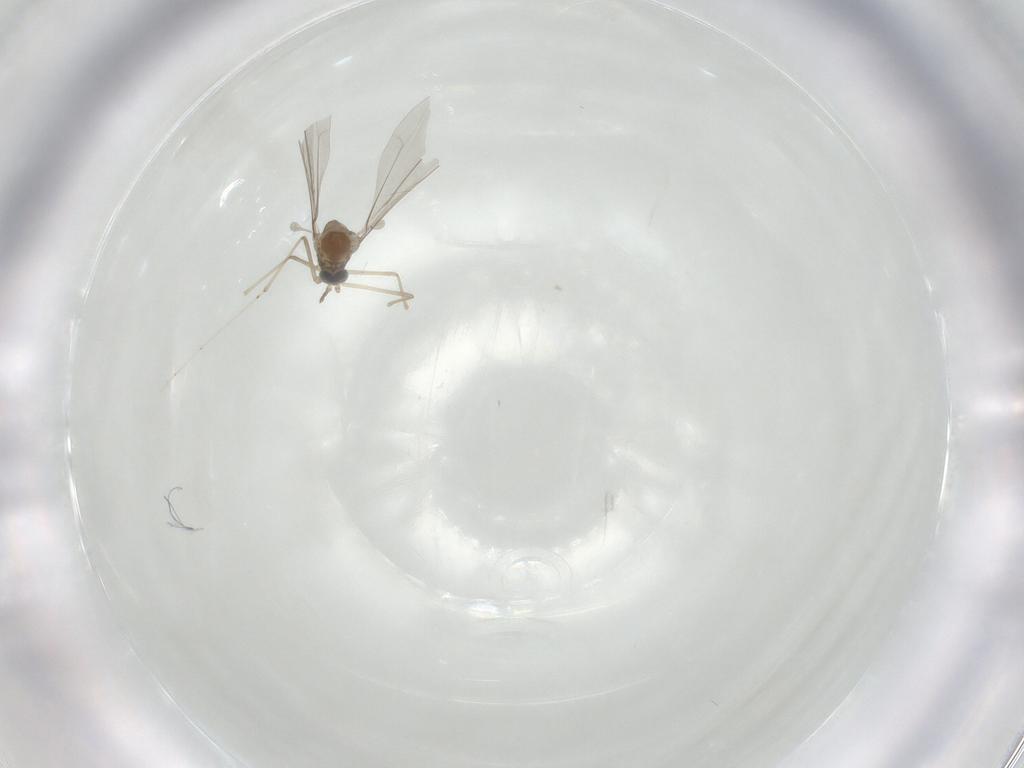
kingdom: Animalia
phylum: Arthropoda
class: Insecta
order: Diptera
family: Cecidomyiidae
